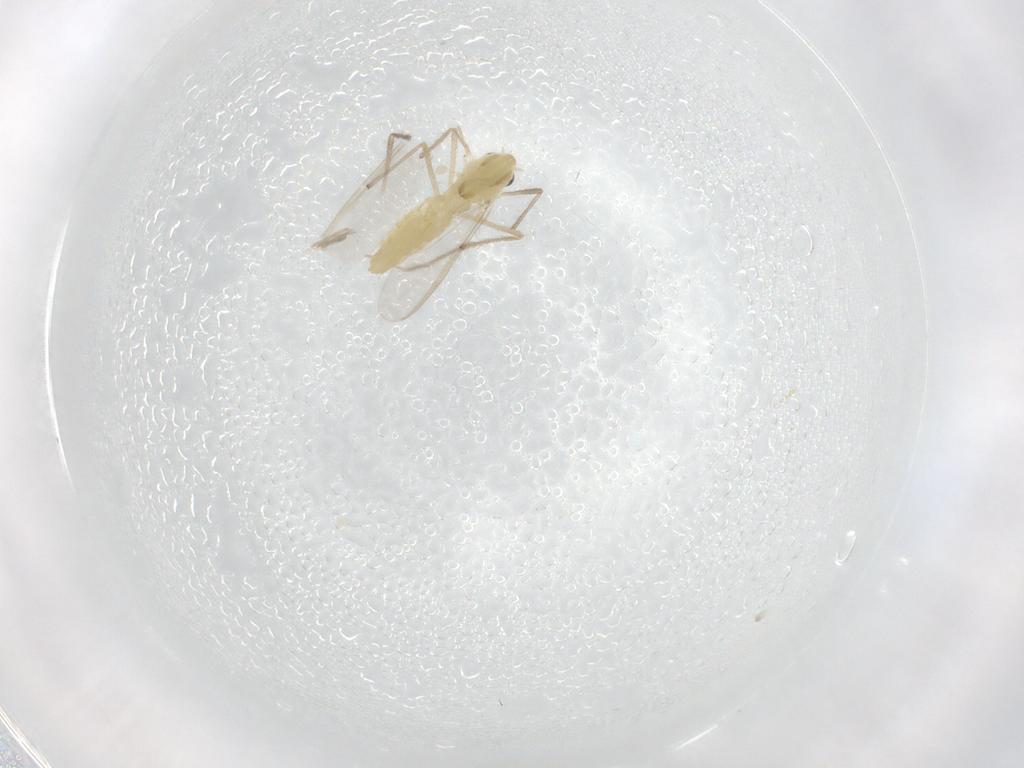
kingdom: Animalia
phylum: Arthropoda
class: Insecta
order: Diptera
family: Chironomidae
